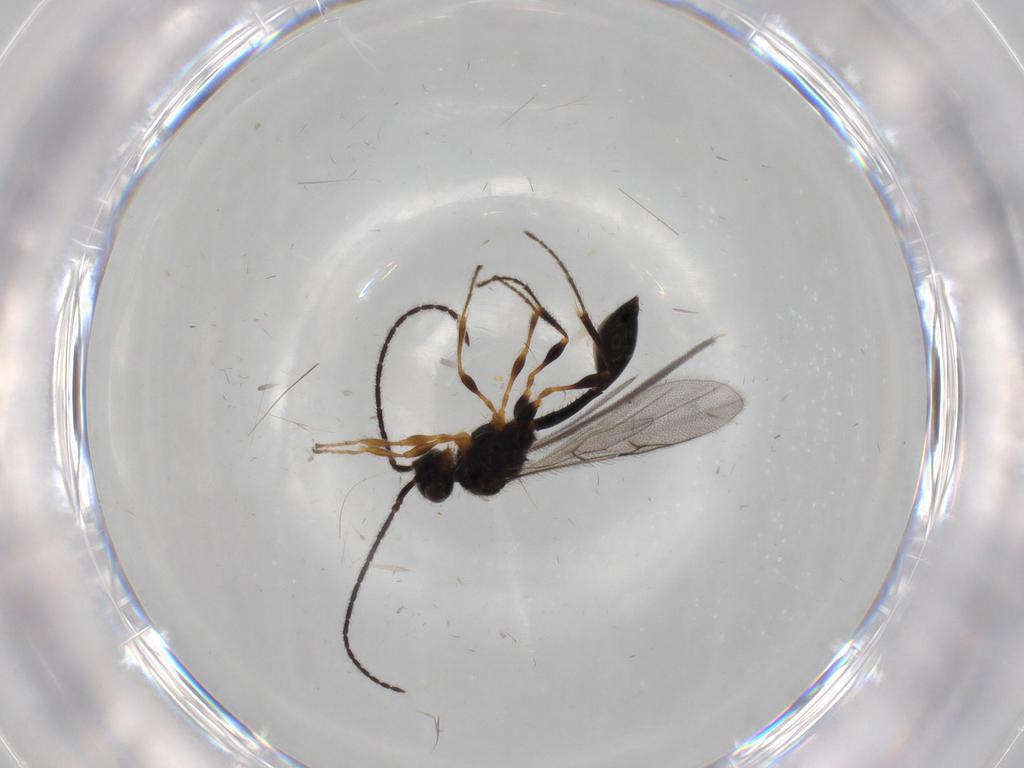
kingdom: Animalia
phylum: Arthropoda
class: Insecta
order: Hymenoptera
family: Diapriidae
